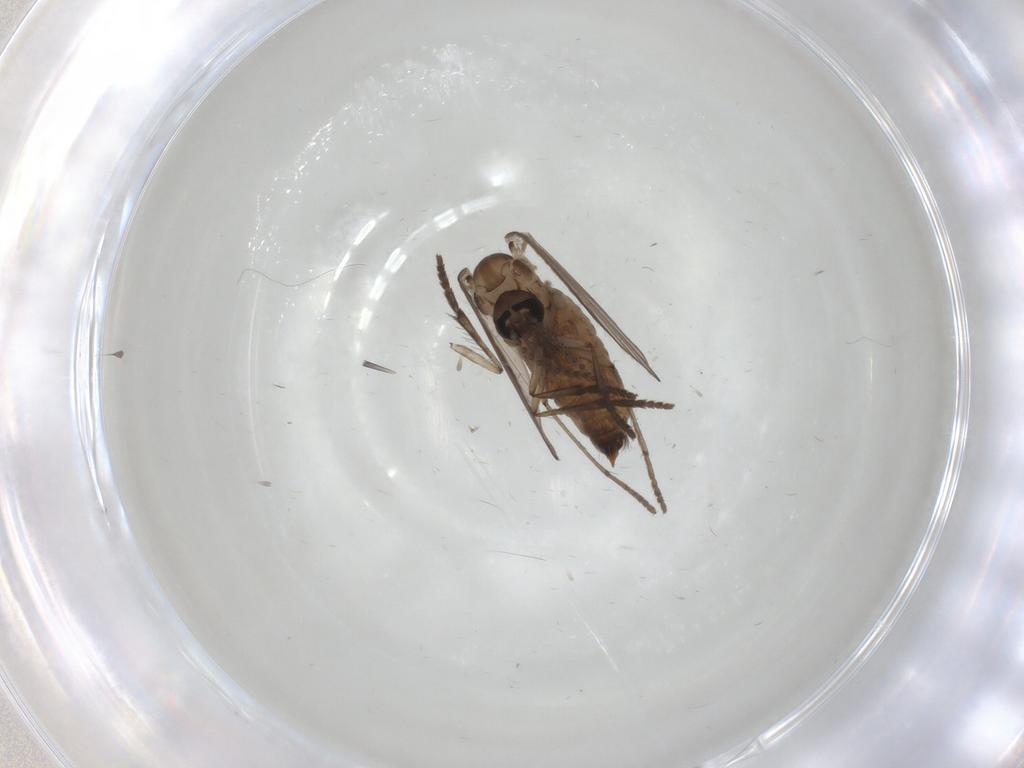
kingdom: Animalia
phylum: Arthropoda
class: Insecta
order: Diptera
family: Psychodidae
